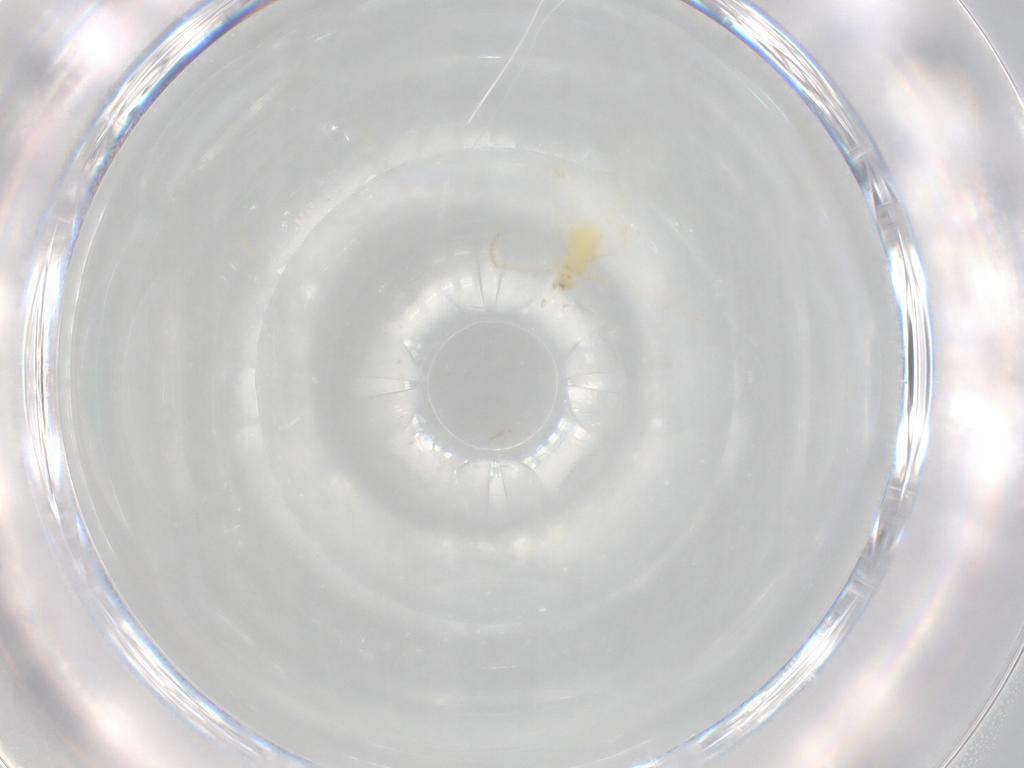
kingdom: Animalia
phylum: Arthropoda
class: Arachnida
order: Trombidiformes
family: Erythraeidae
